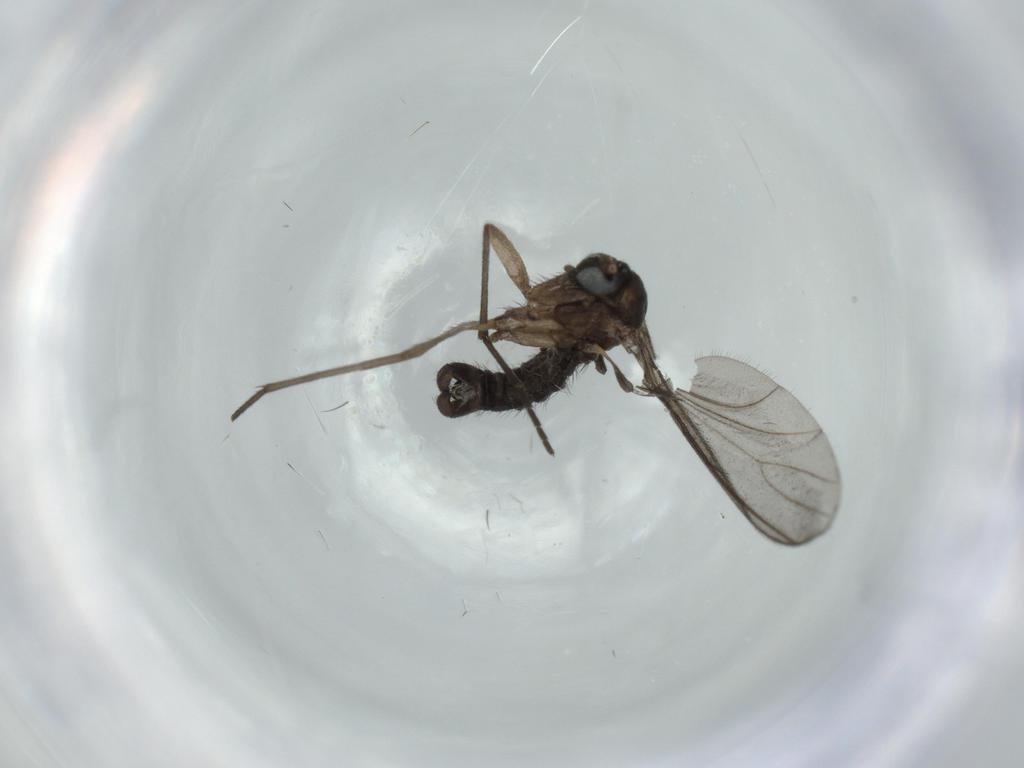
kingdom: Animalia
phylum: Arthropoda
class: Insecta
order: Diptera
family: Sciaridae
